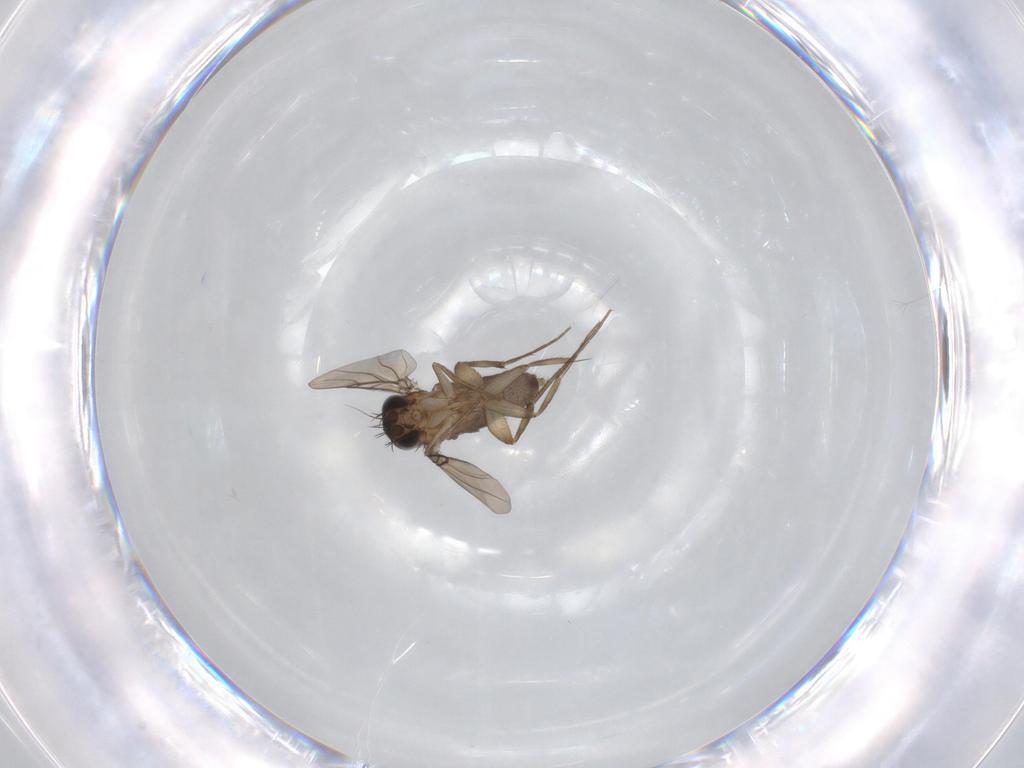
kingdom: Animalia
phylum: Arthropoda
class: Insecta
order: Diptera
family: Phoridae
